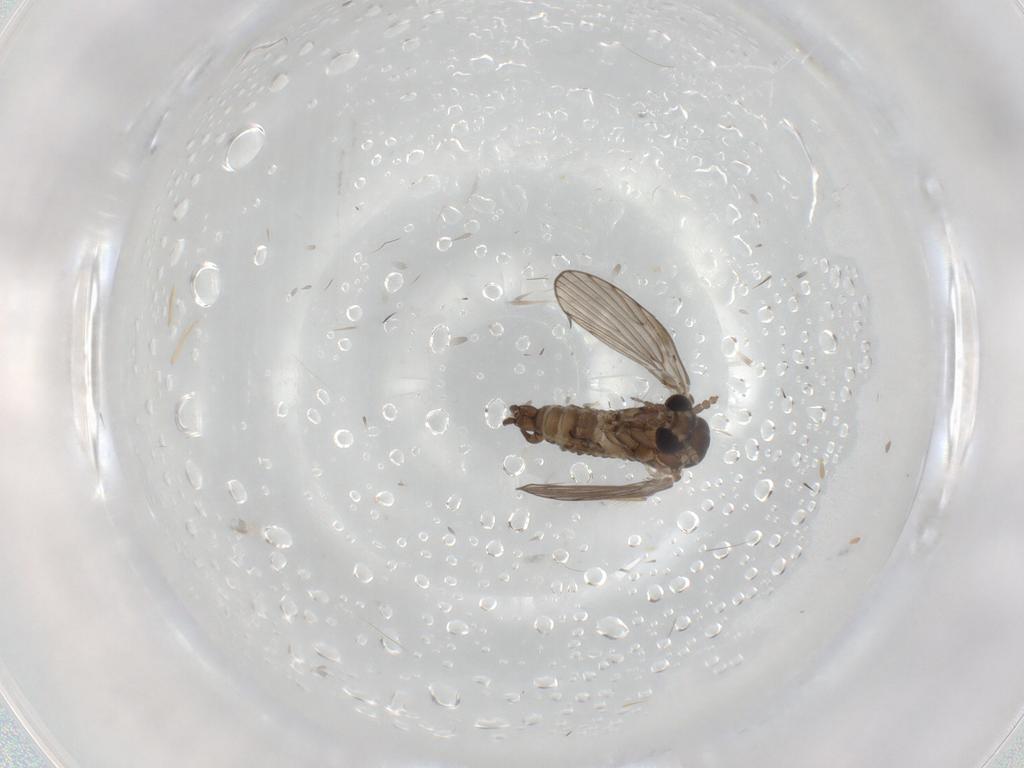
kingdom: Animalia
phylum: Arthropoda
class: Insecta
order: Diptera
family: Psychodidae
